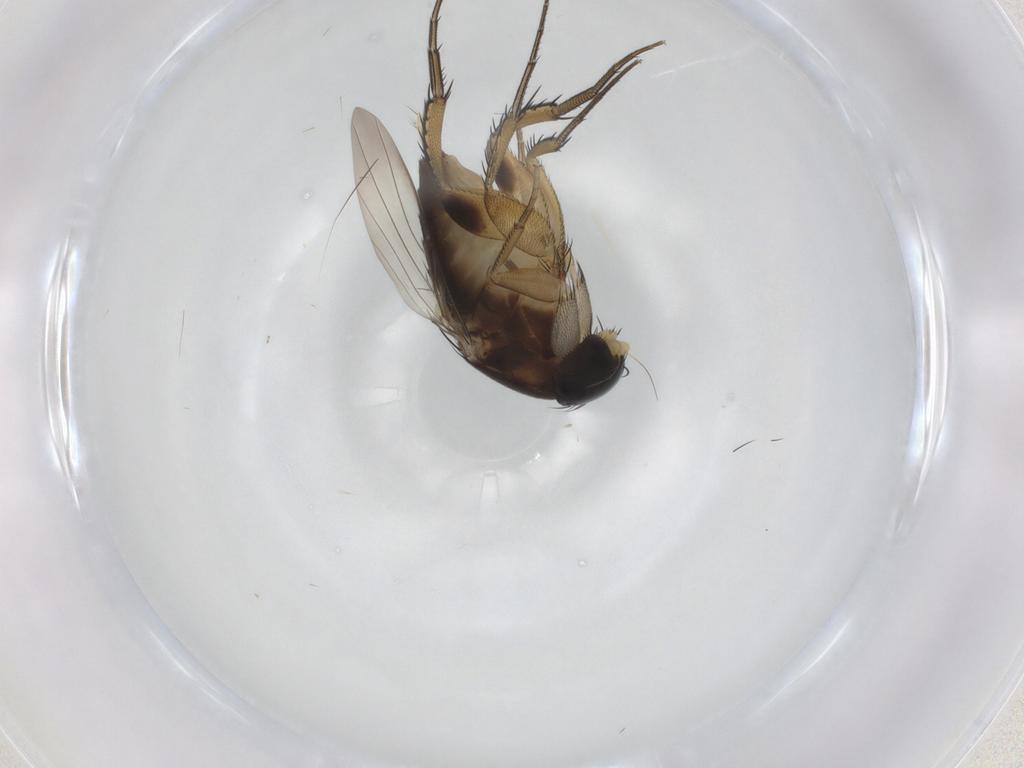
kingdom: Animalia
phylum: Arthropoda
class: Insecta
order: Diptera
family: Phoridae
